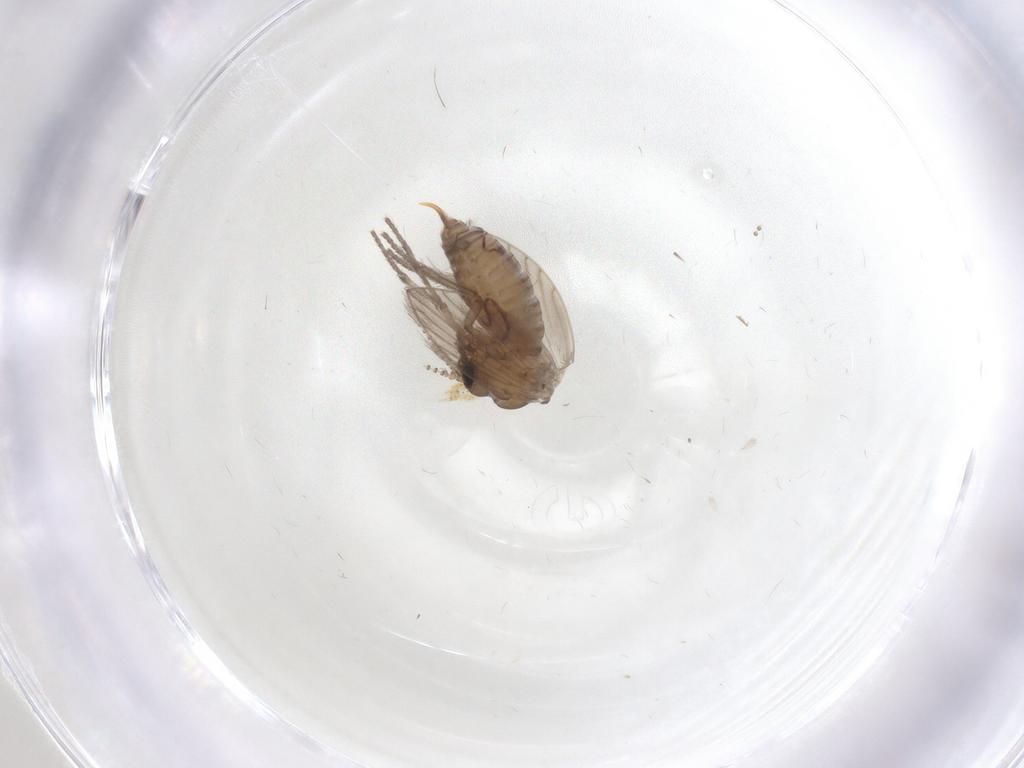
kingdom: Animalia
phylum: Arthropoda
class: Insecta
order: Diptera
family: Psychodidae
